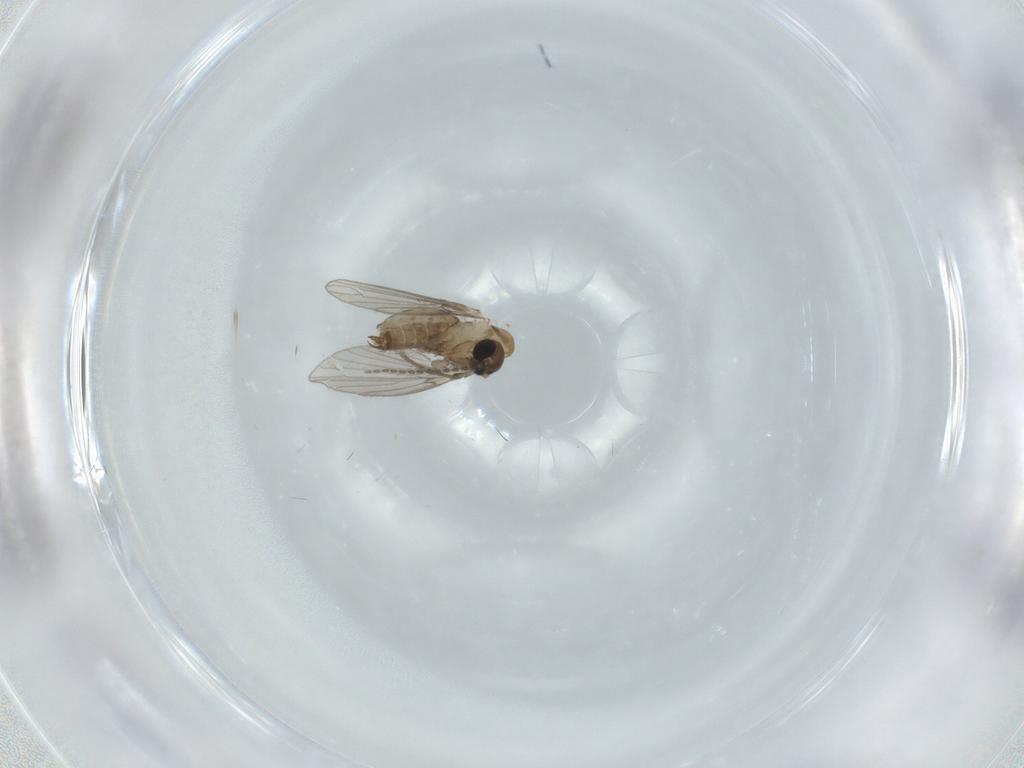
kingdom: Animalia
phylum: Arthropoda
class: Insecta
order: Diptera
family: Psychodidae
